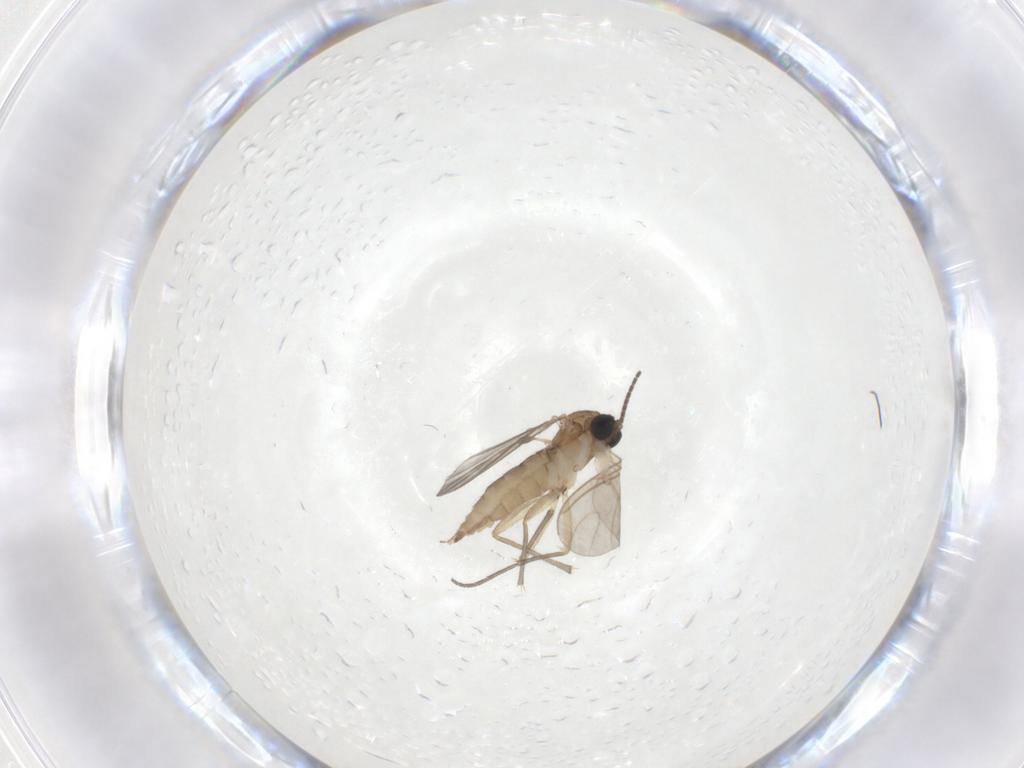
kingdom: Animalia
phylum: Arthropoda
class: Insecta
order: Diptera
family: Sciaridae
